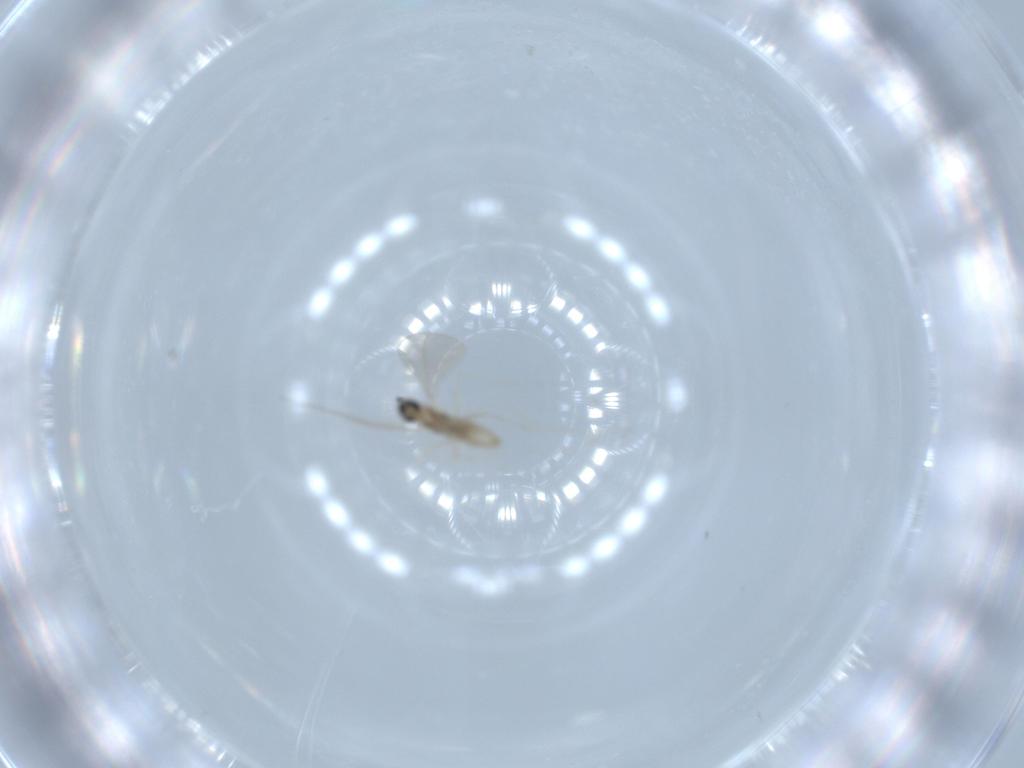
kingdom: Animalia
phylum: Arthropoda
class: Insecta
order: Diptera
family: Cecidomyiidae
